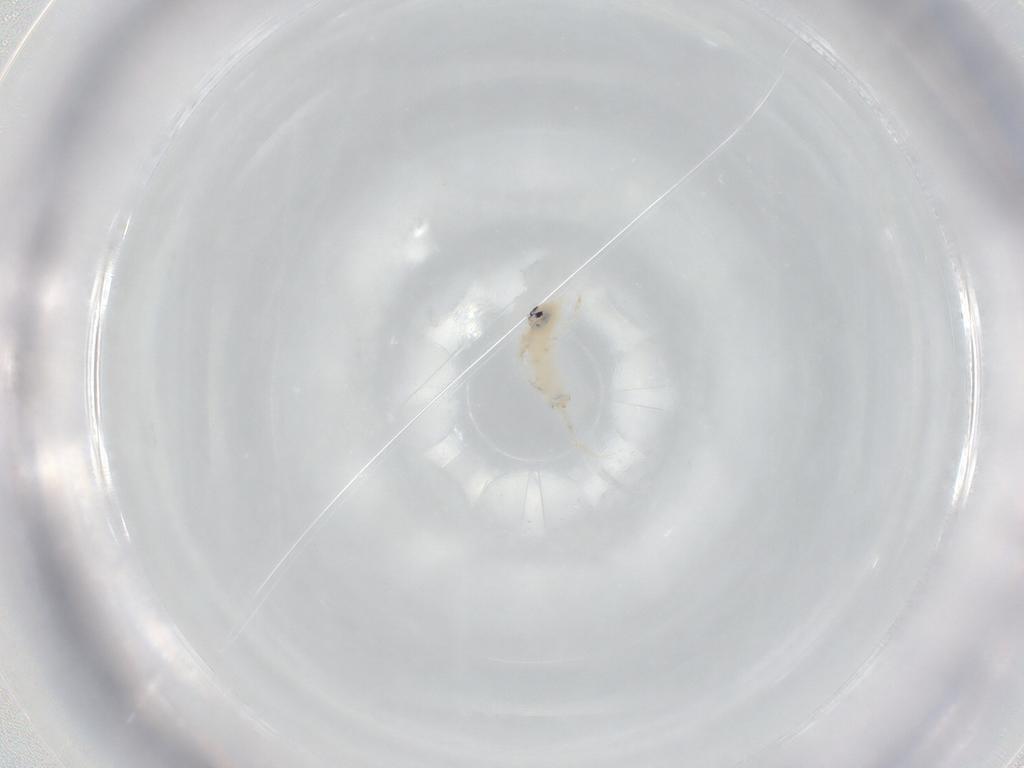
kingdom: Animalia
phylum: Arthropoda
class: Collembola
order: Entomobryomorpha
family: Entomobryidae
